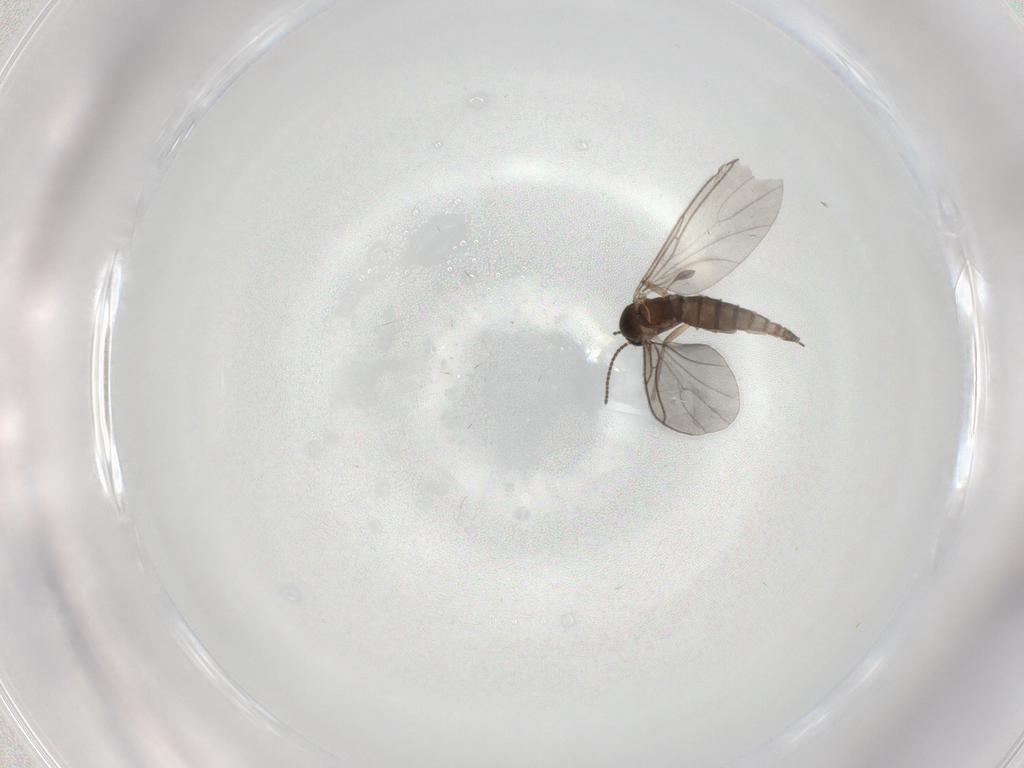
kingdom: Animalia
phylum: Arthropoda
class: Insecta
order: Diptera
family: Sciaridae
